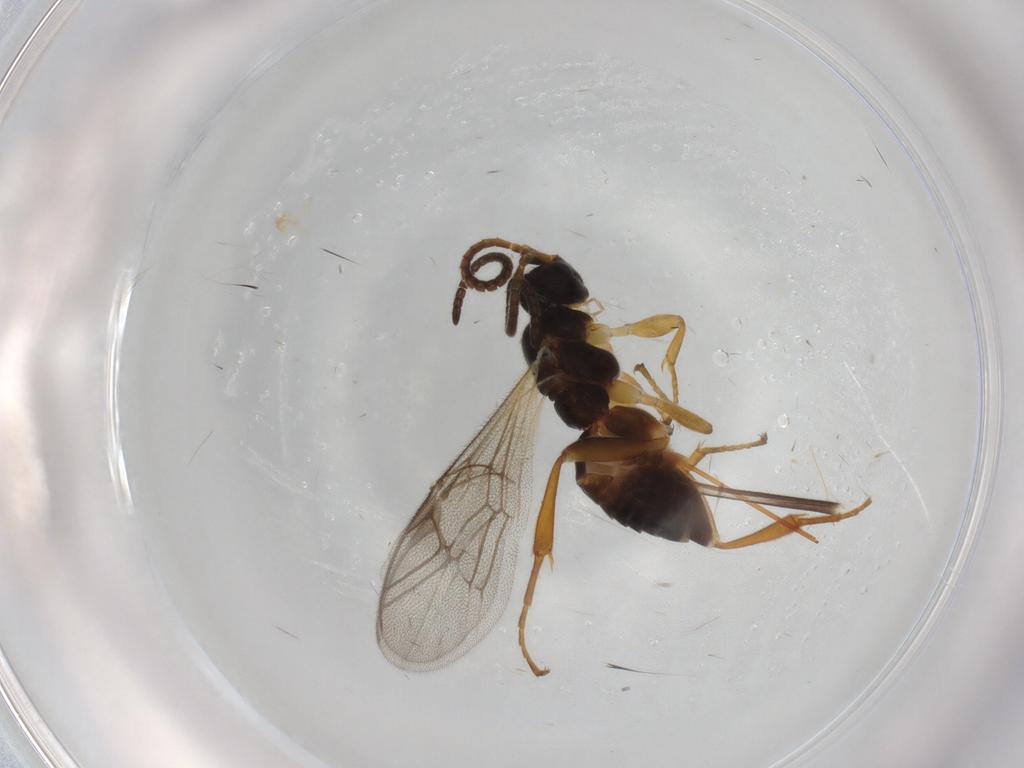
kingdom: Animalia
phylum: Arthropoda
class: Insecta
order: Hymenoptera
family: Ichneumonidae
